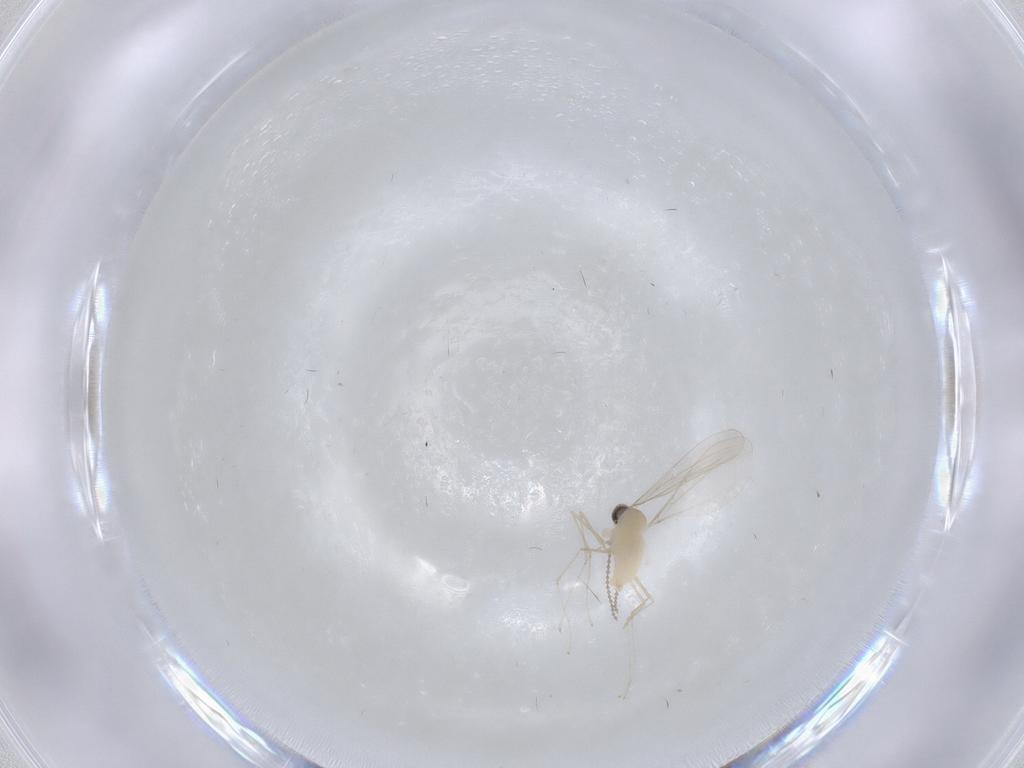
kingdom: Animalia
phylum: Arthropoda
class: Insecta
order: Diptera
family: Cecidomyiidae
